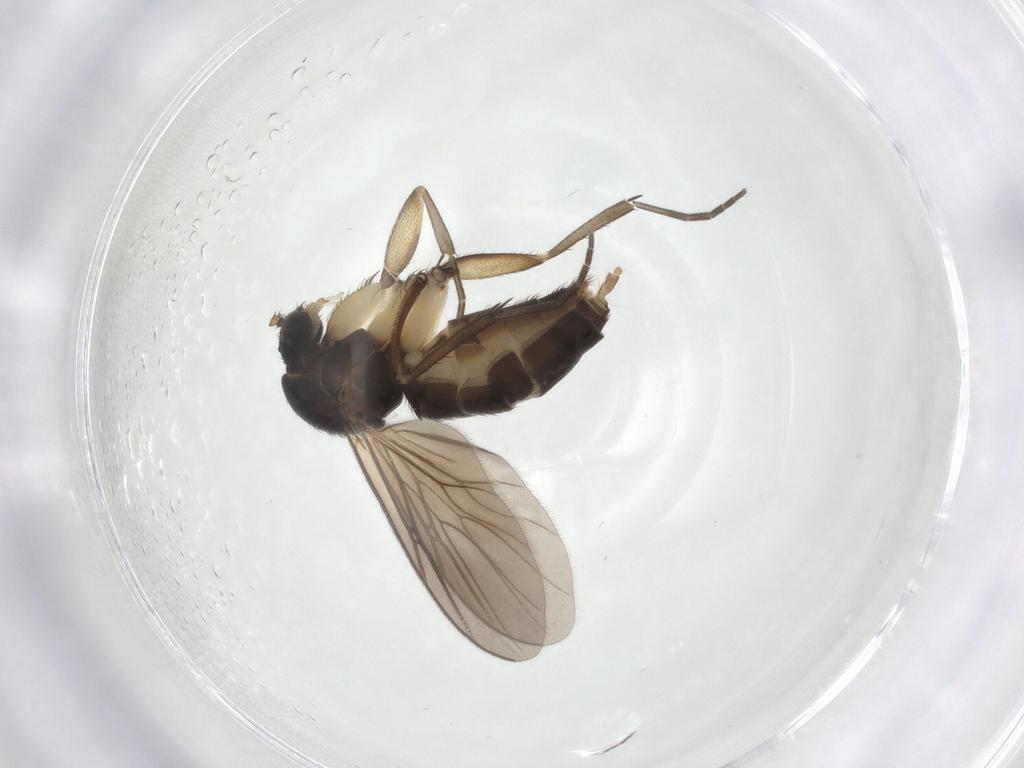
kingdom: Animalia
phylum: Arthropoda
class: Insecta
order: Diptera
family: Mycetophilidae
